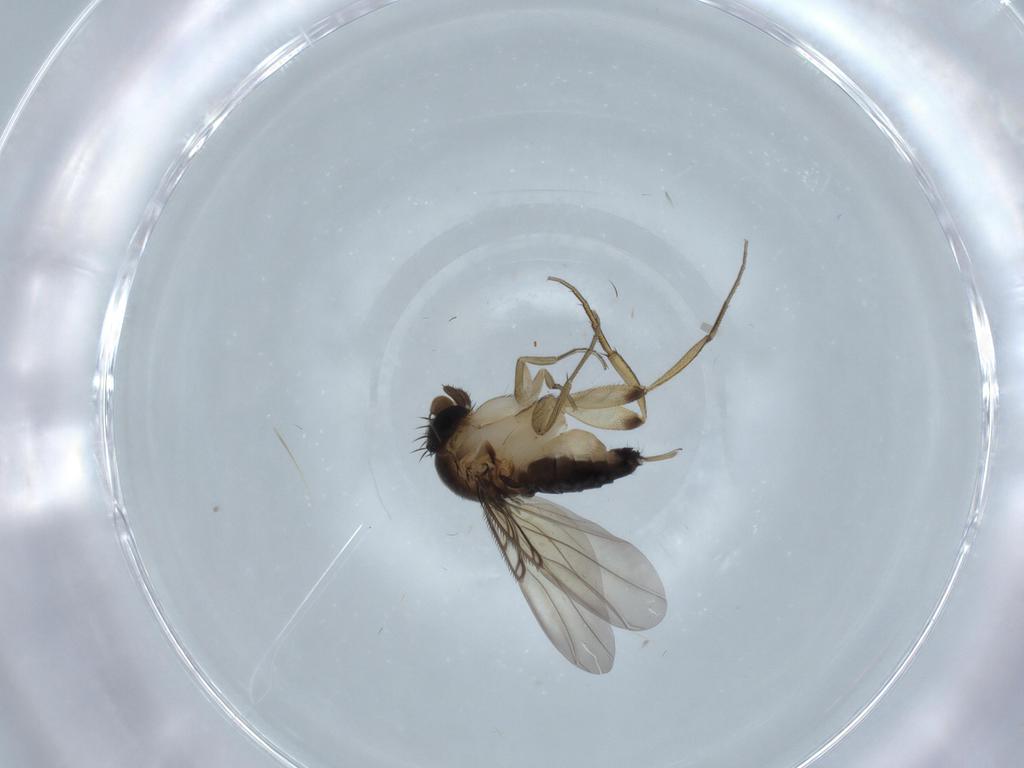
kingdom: Animalia
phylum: Arthropoda
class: Insecta
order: Diptera
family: Phoridae
